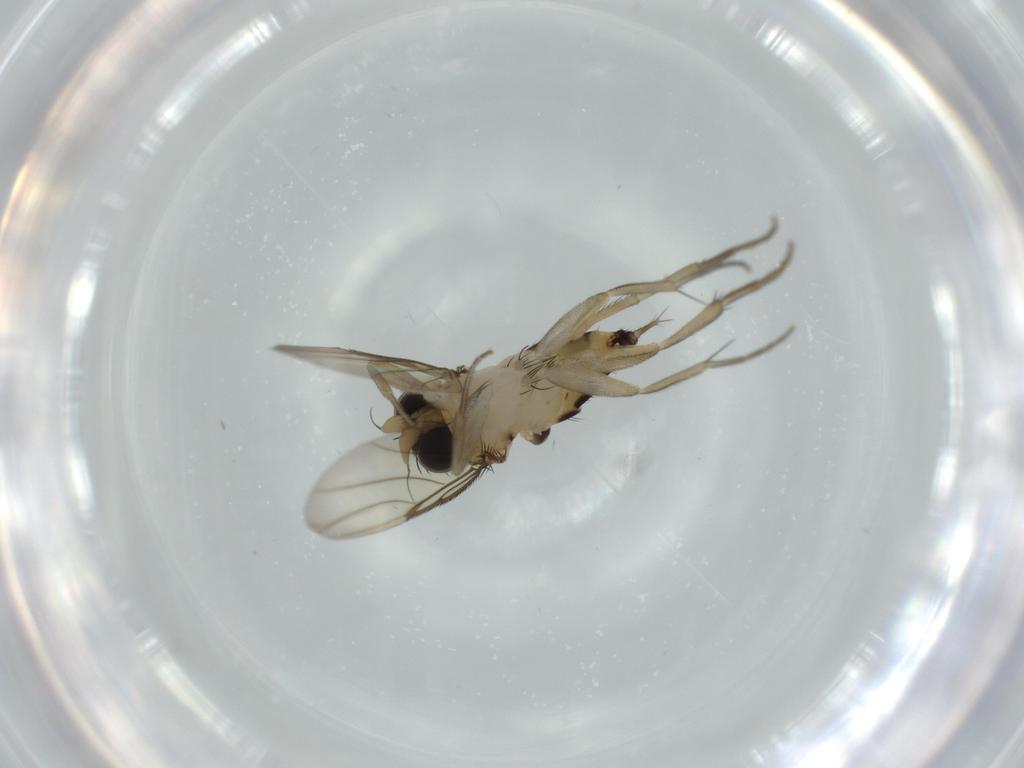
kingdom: Animalia
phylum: Arthropoda
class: Insecta
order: Diptera
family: Phoridae
